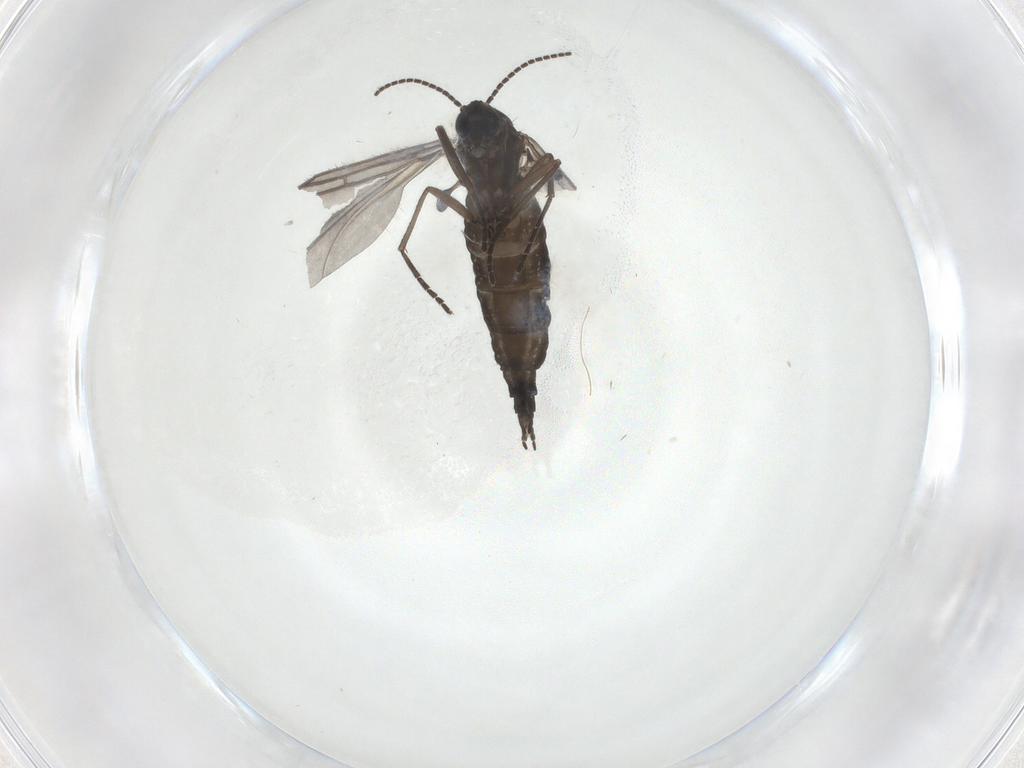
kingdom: Animalia
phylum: Arthropoda
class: Insecta
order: Diptera
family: Sciaridae
